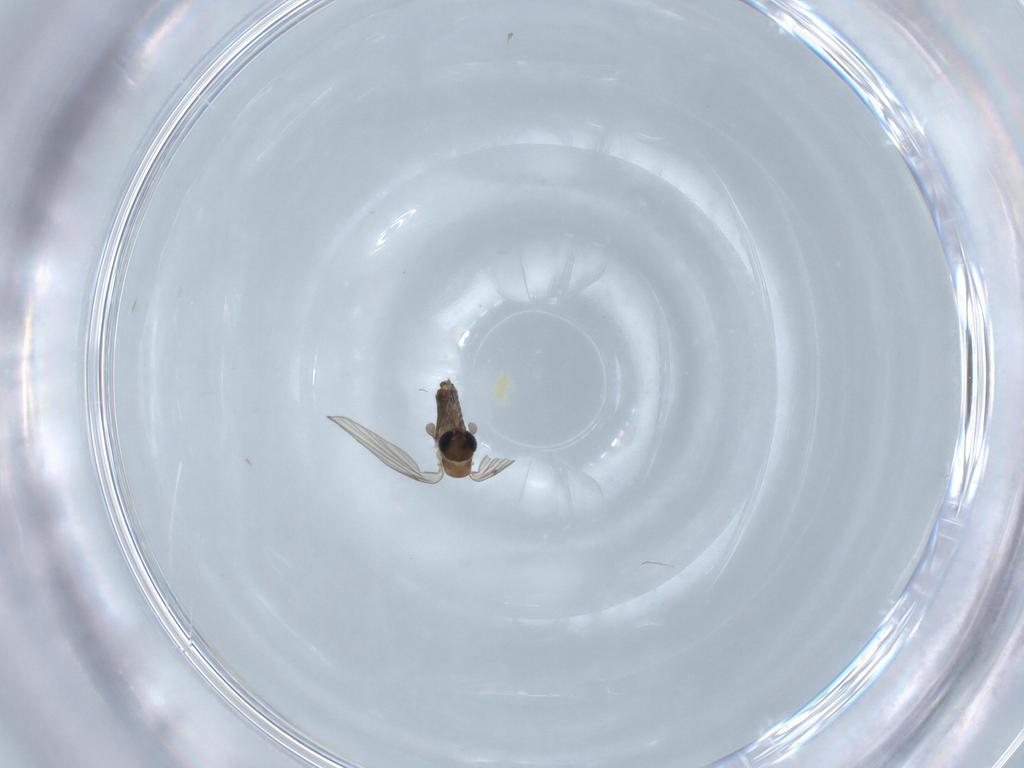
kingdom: Animalia
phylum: Arthropoda
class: Insecta
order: Diptera
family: Chironomidae
